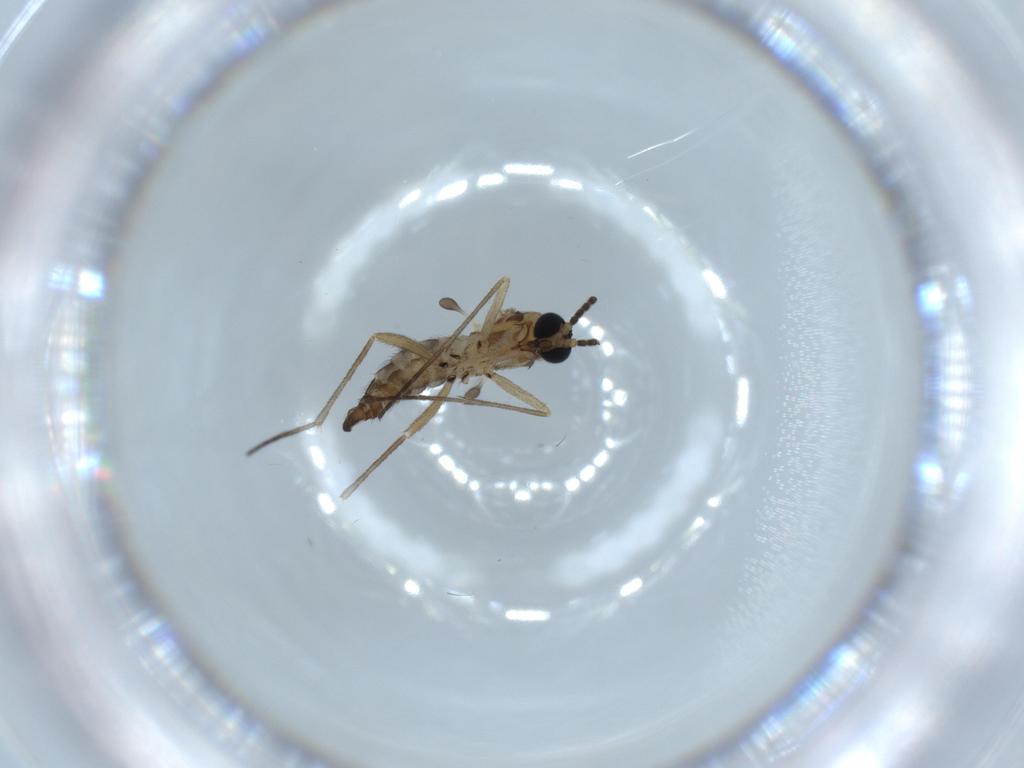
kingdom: Animalia
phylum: Arthropoda
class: Insecta
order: Diptera
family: Sciaridae
